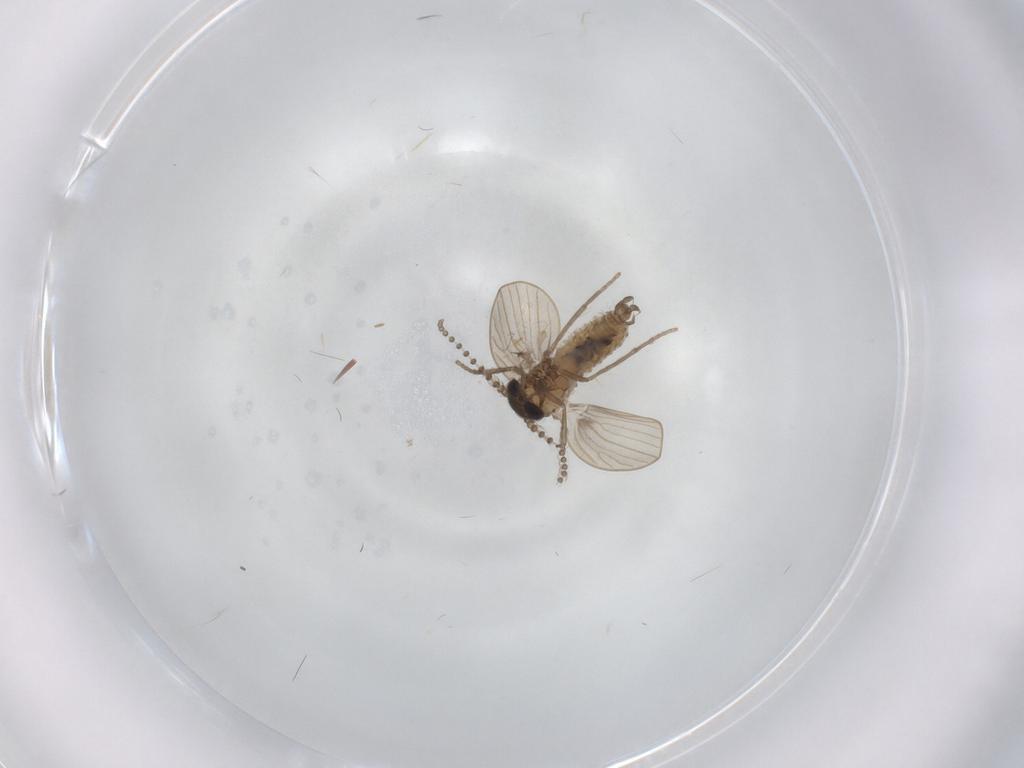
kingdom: Animalia
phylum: Arthropoda
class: Insecta
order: Diptera
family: Cecidomyiidae
